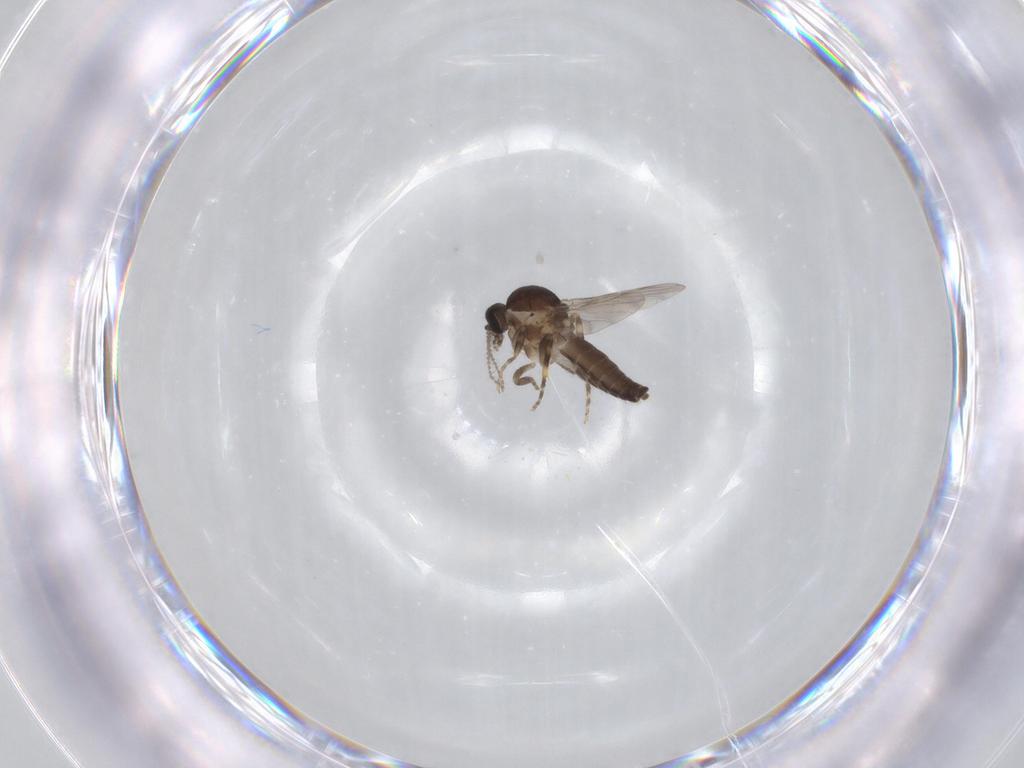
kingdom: Animalia
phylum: Arthropoda
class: Insecta
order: Diptera
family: Ceratopogonidae
